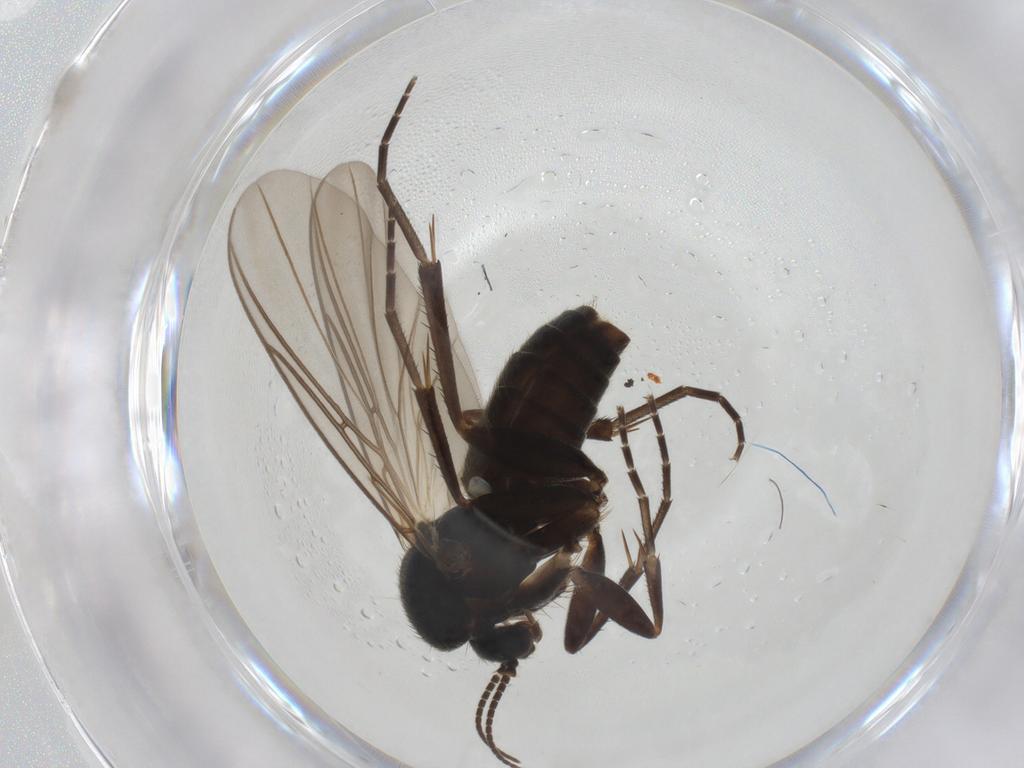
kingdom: Animalia
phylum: Arthropoda
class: Insecta
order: Diptera
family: Mycetophilidae
